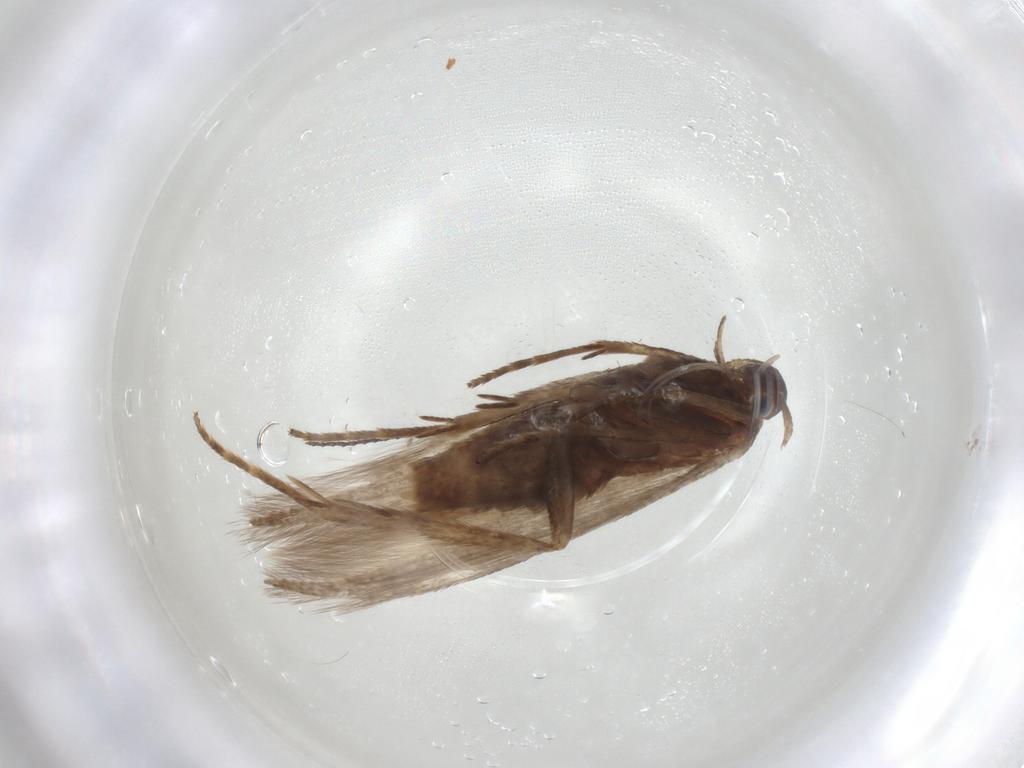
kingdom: Animalia
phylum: Arthropoda
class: Insecta
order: Lepidoptera
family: Erebidae
